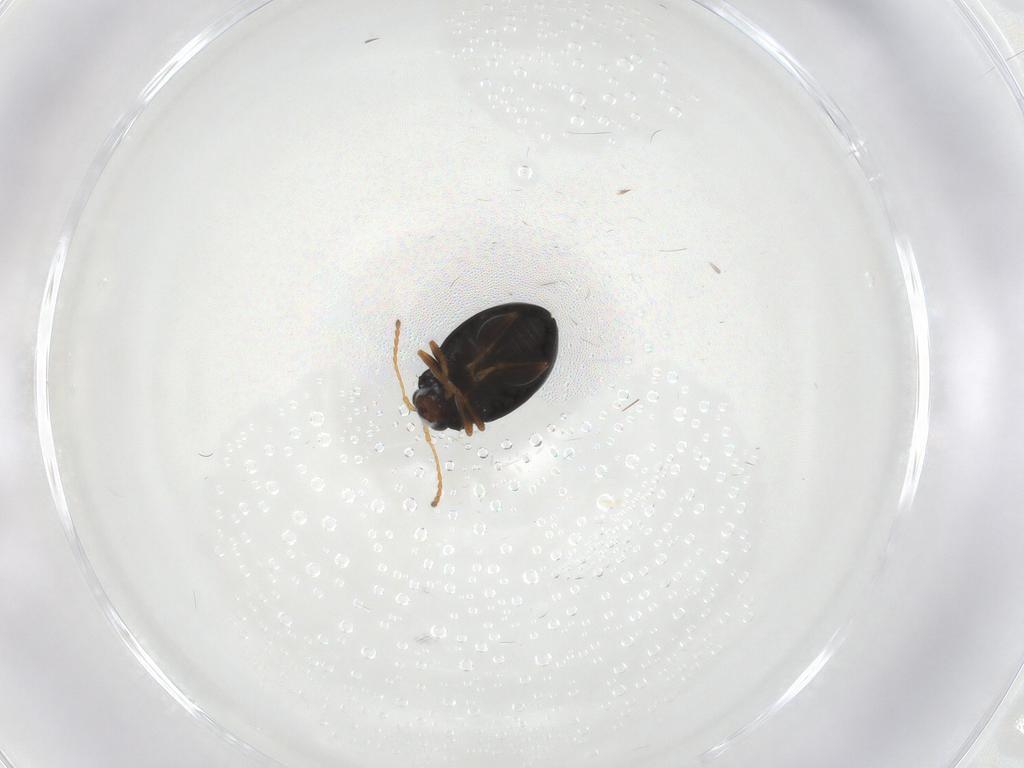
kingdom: Animalia
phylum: Arthropoda
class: Insecta
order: Coleoptera
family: Chrysomelidae
